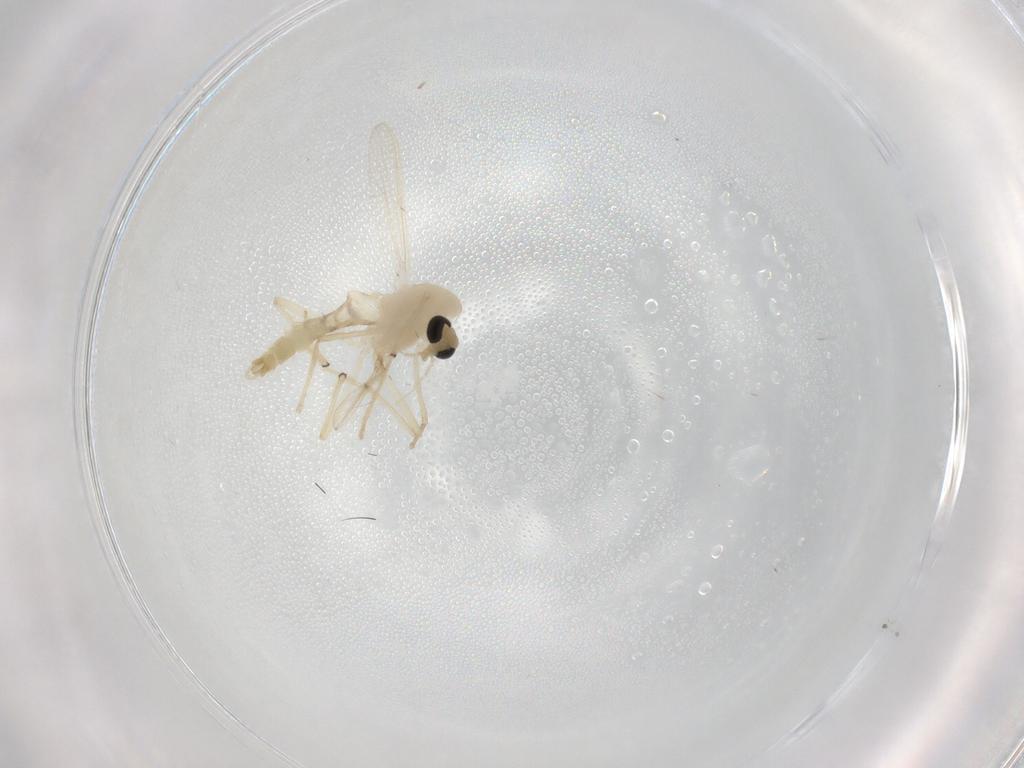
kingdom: Animalia
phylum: Arthropoda
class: Insecta
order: Diptera
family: Chironomidae
